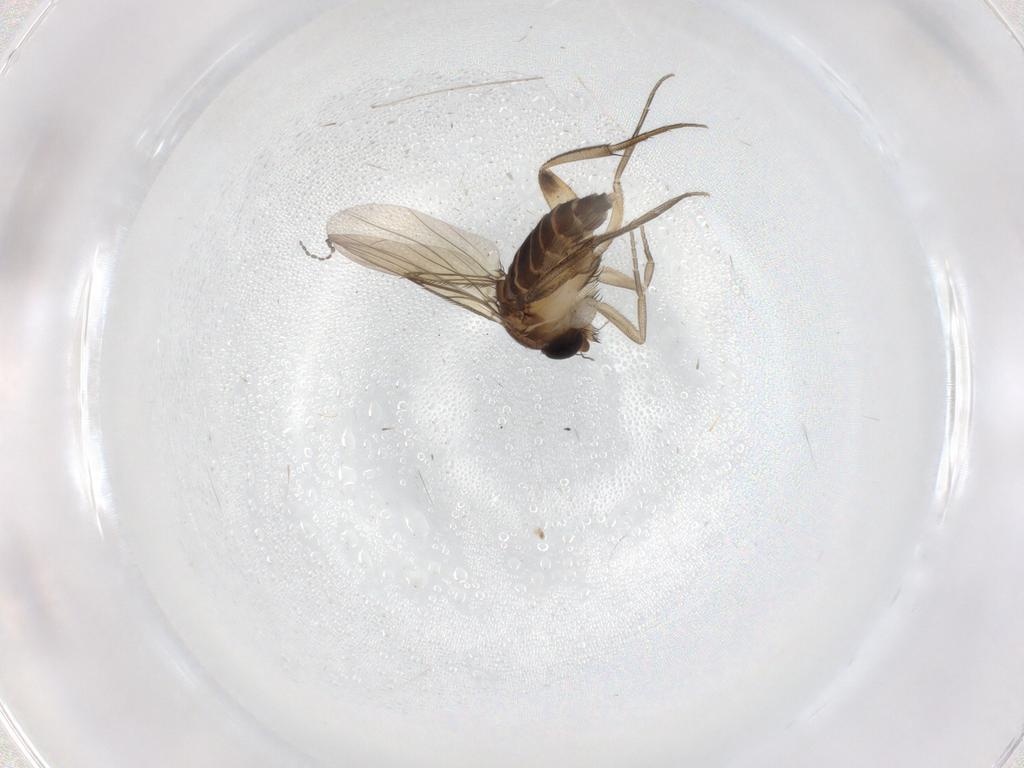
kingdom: Animalia
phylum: Arthropoda
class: Insecta
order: Diptera
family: Phoridae
